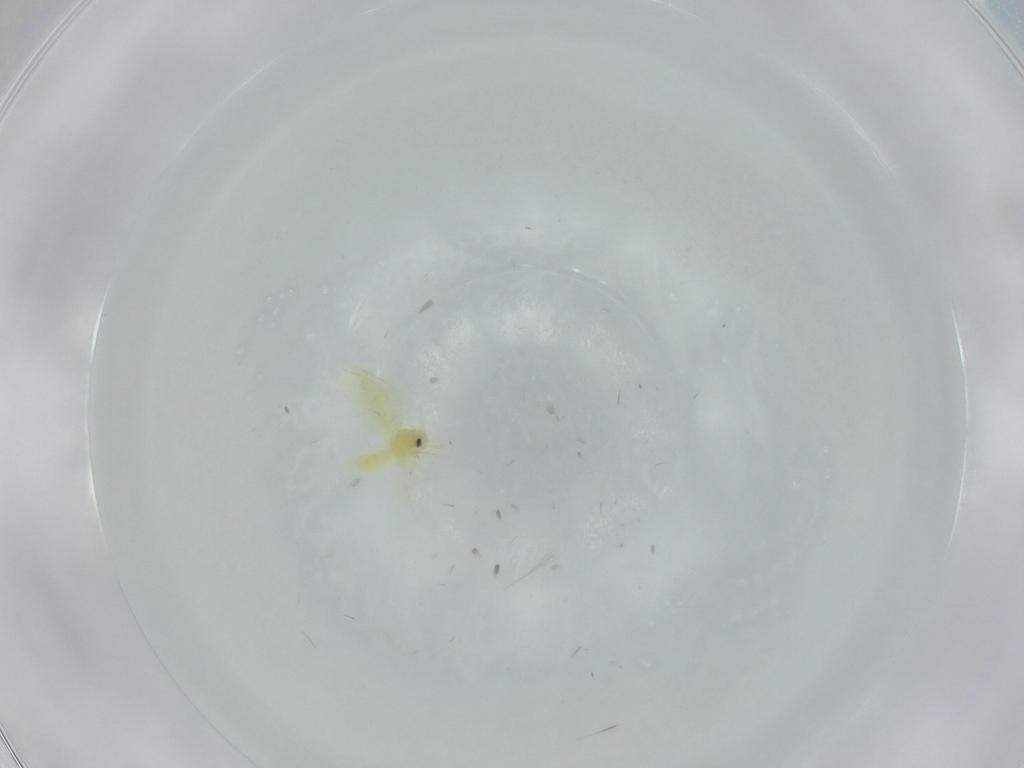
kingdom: Animalia
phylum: Arthropoda
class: Insecta
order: Hemiptera
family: Aleyrodidae
